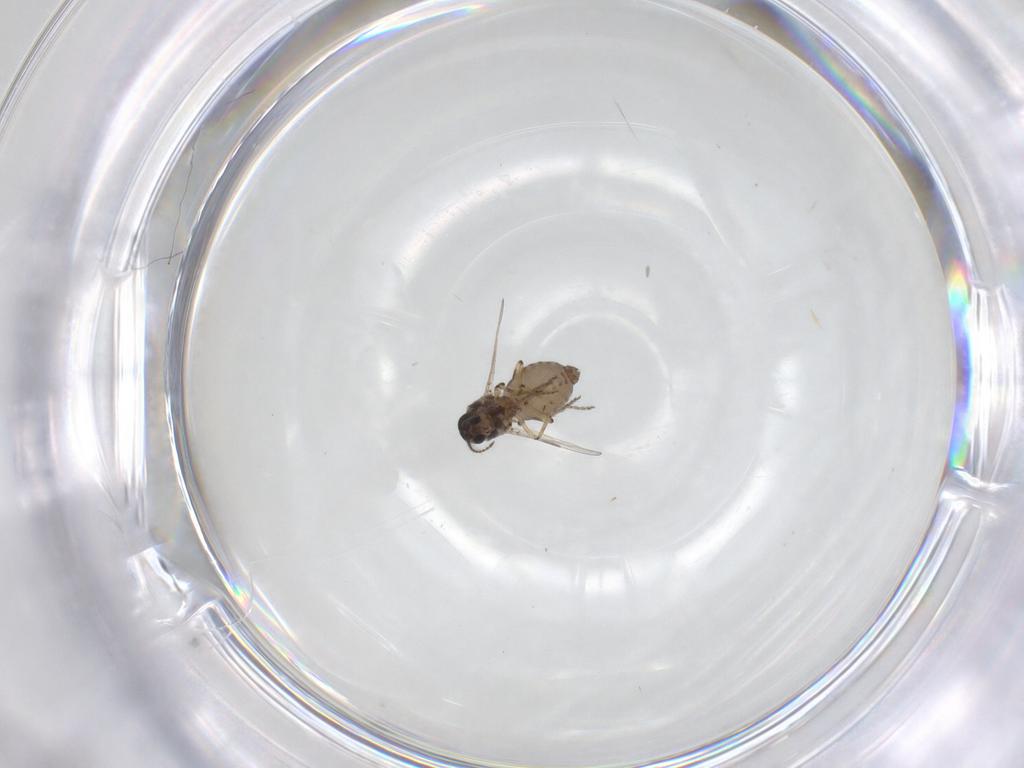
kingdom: Animalia
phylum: Arthropoda
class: Insecta
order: Diptera
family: Ceratopogonidae
